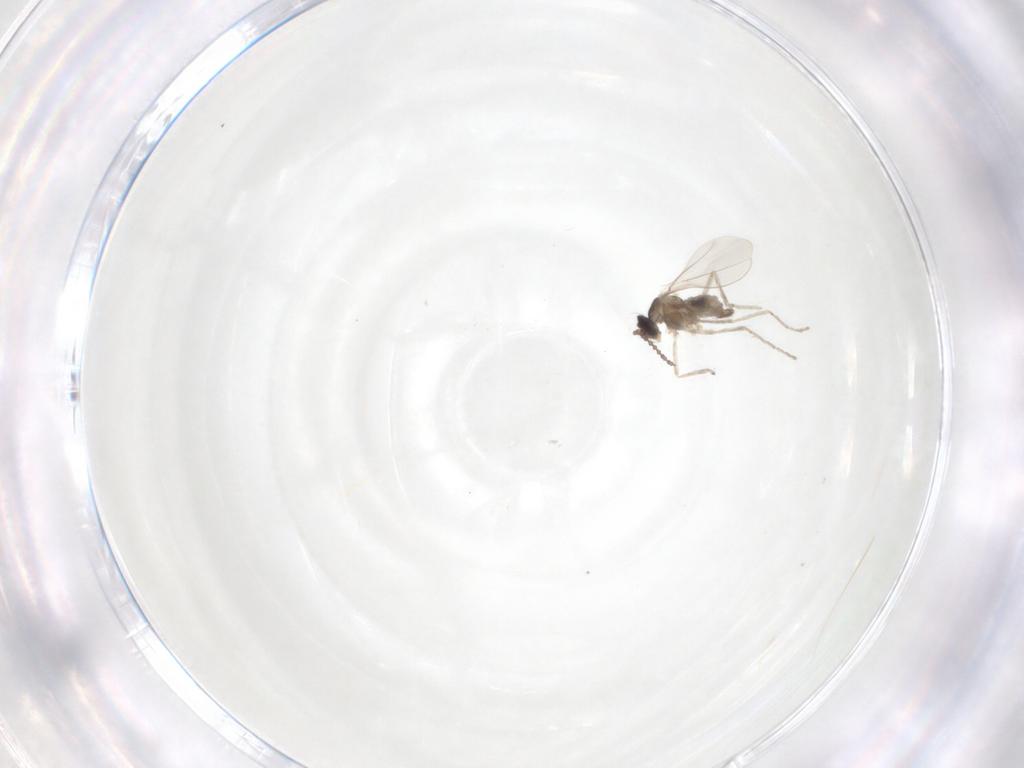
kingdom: Animalia
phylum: Arthropoda
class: Insecta
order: Diptera
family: Cecidomyiidae
